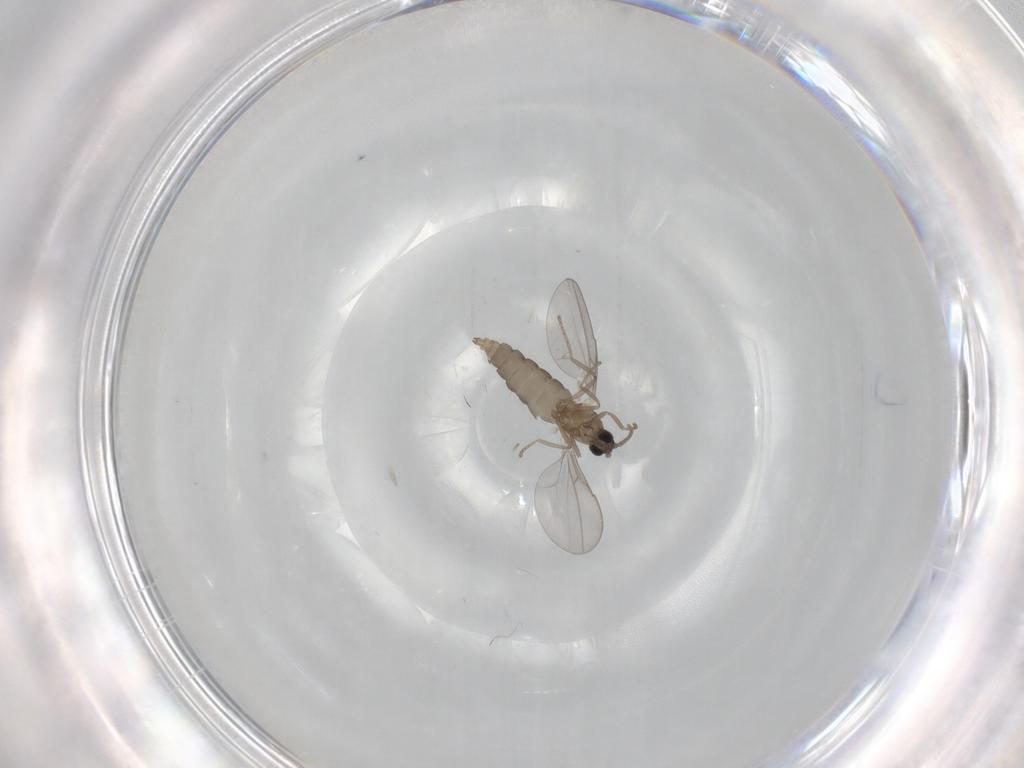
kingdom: Animalia
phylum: Arthropoda
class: Insecta
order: Diptera
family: Cecidomyiidae
